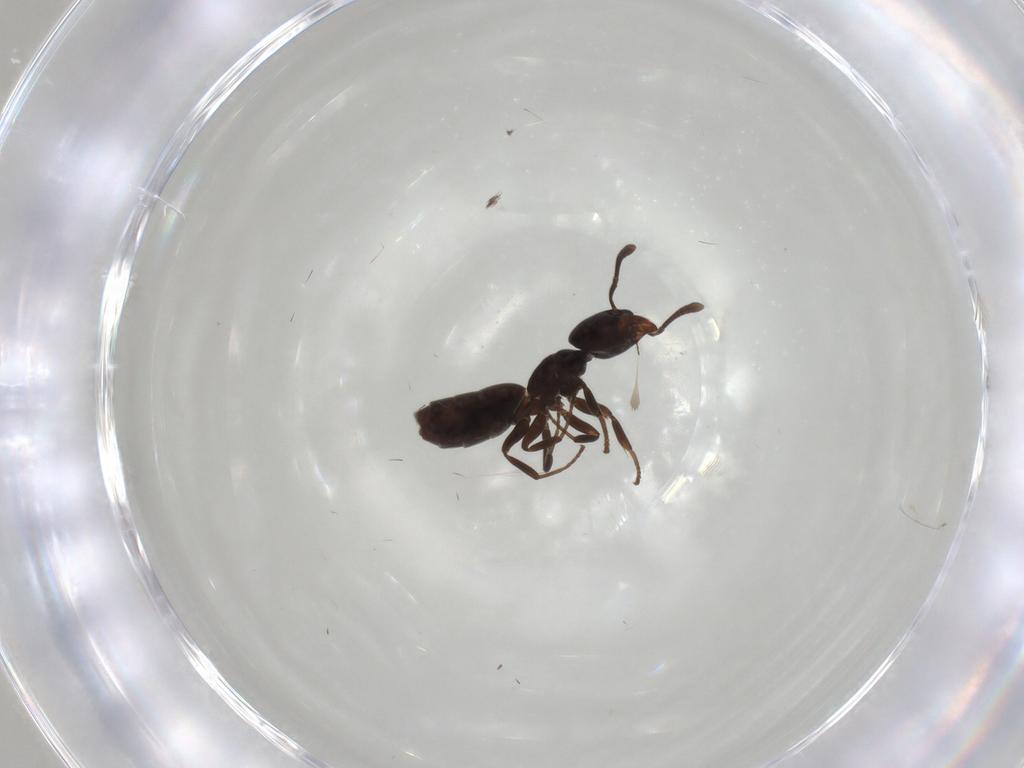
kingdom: Animalia
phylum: Arthropoda
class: Insecta
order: Hymenoptera
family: Formicidae
